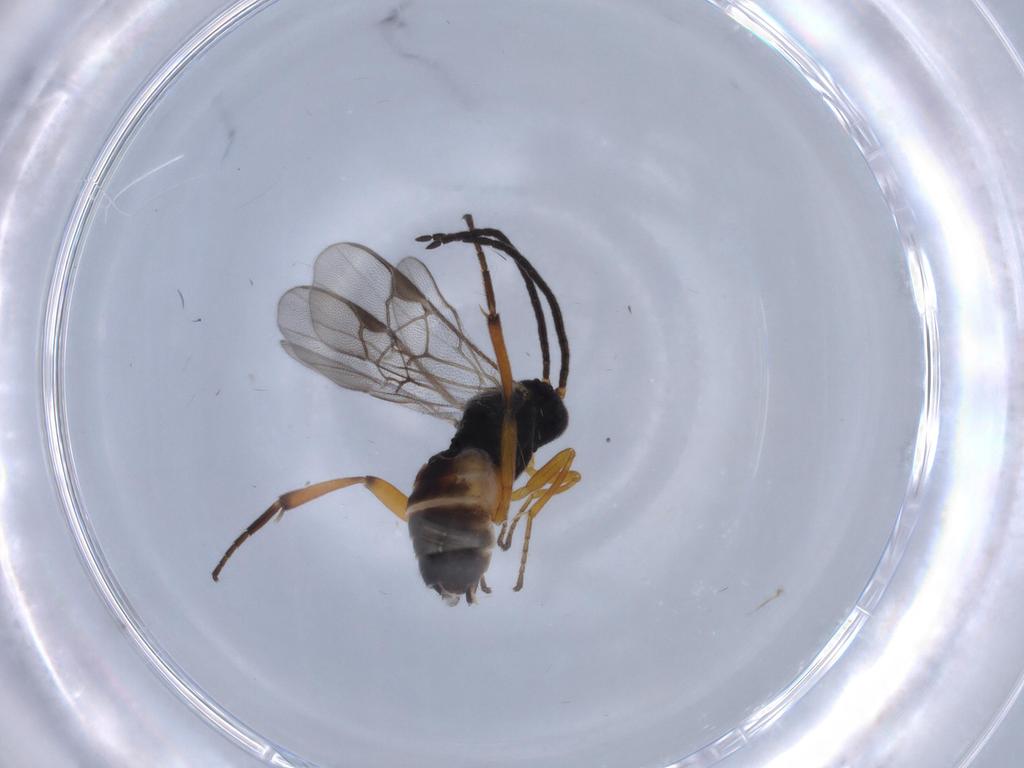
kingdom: Animalia
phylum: Arthropoda
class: Insecta
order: Hymenoptera
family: Braconidae
